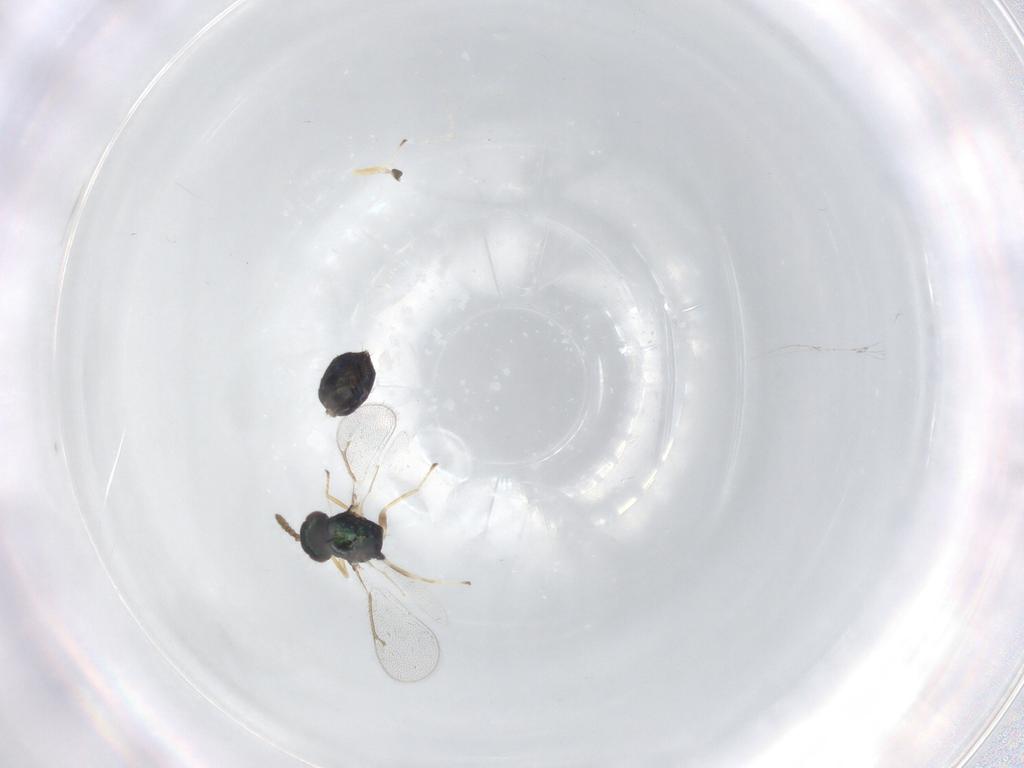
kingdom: Animalia
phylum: Arthropoda
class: Insecta
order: Hymenoptera
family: Eulophidae
